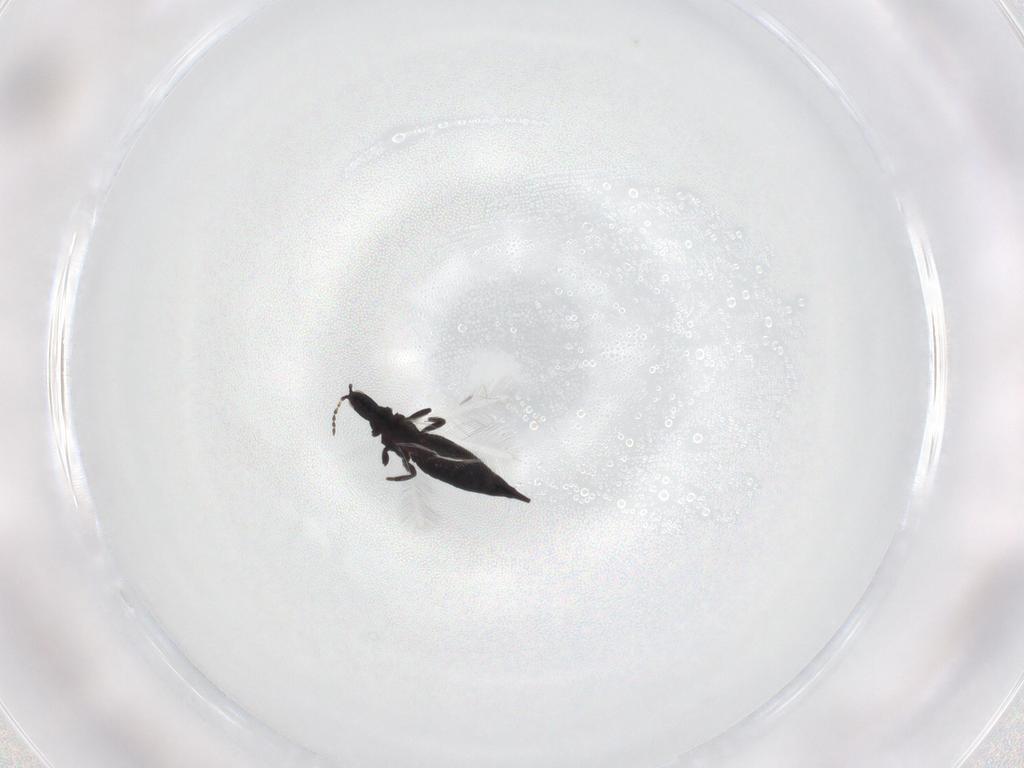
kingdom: Animalia
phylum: Arthropoda
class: Insecta
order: Thysanoptera
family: Phlaeothripidae
